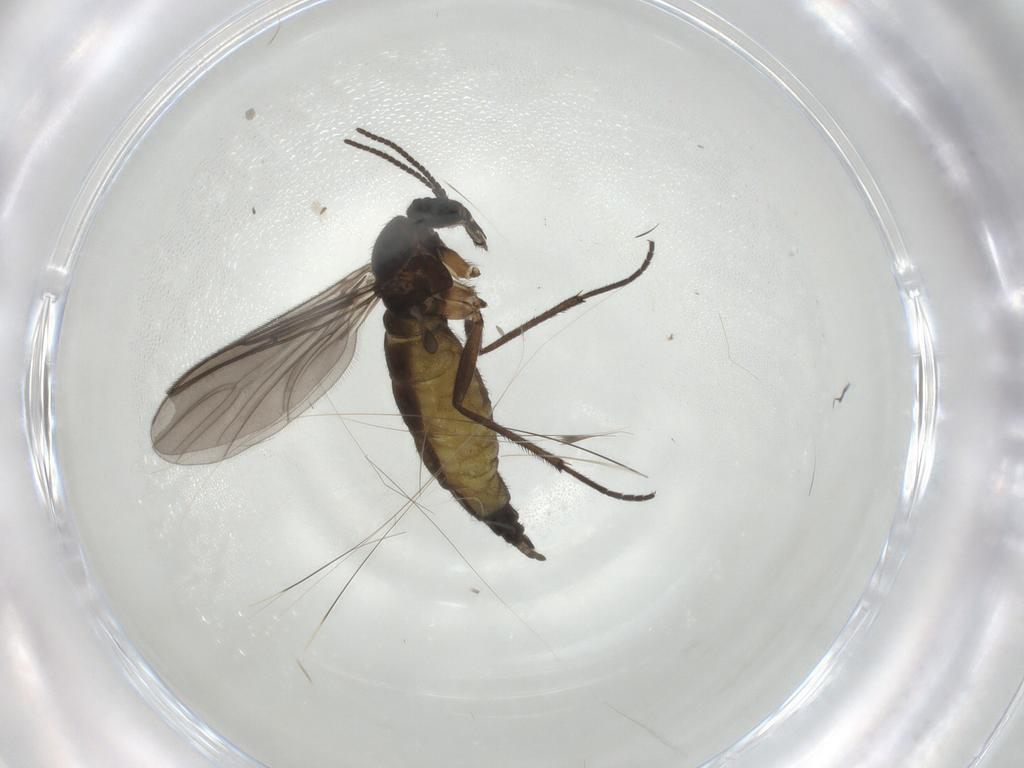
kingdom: Animalia
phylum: Arthropoda
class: Insecta
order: Diptera
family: Sciaridae
